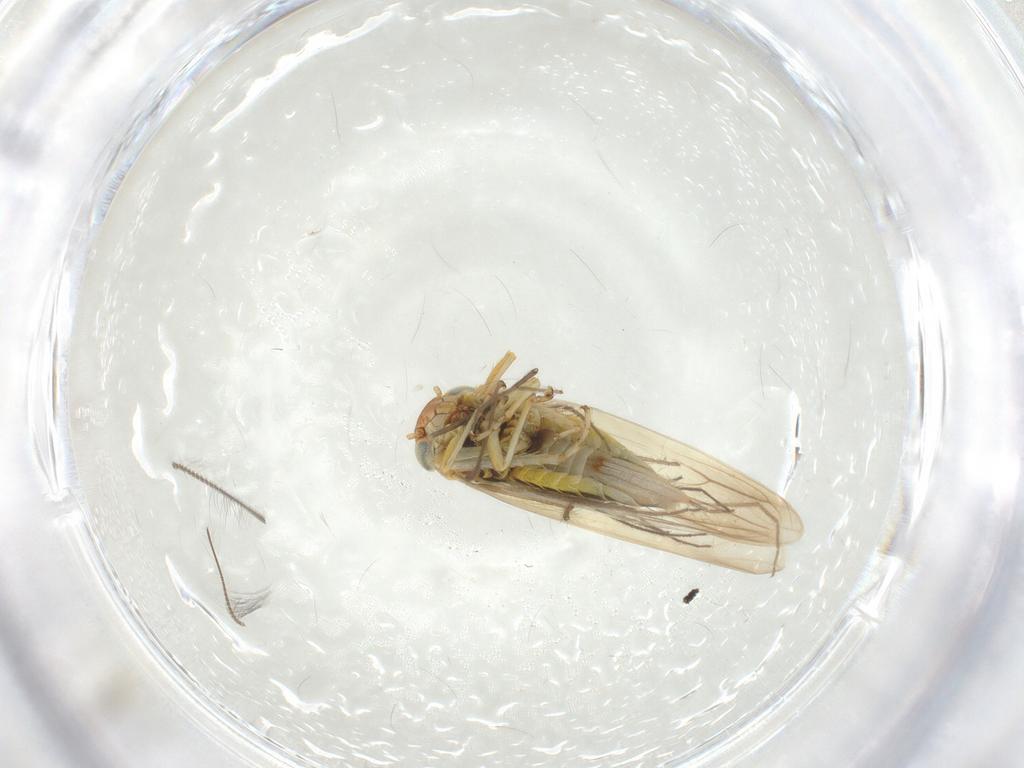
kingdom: Animalia
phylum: Arthropoda
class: Insecta
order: Hemiptera
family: Cicadellidae
